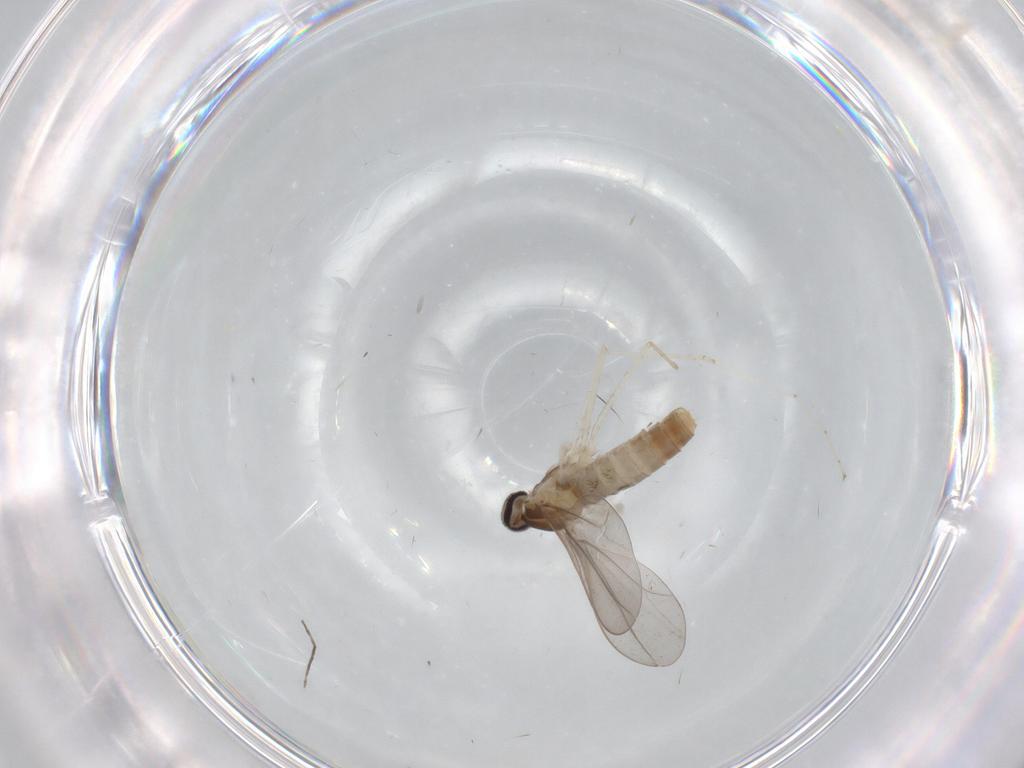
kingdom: Animalia
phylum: Arthropoda
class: Insecta
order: Diptera
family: Cecidomyiidae
